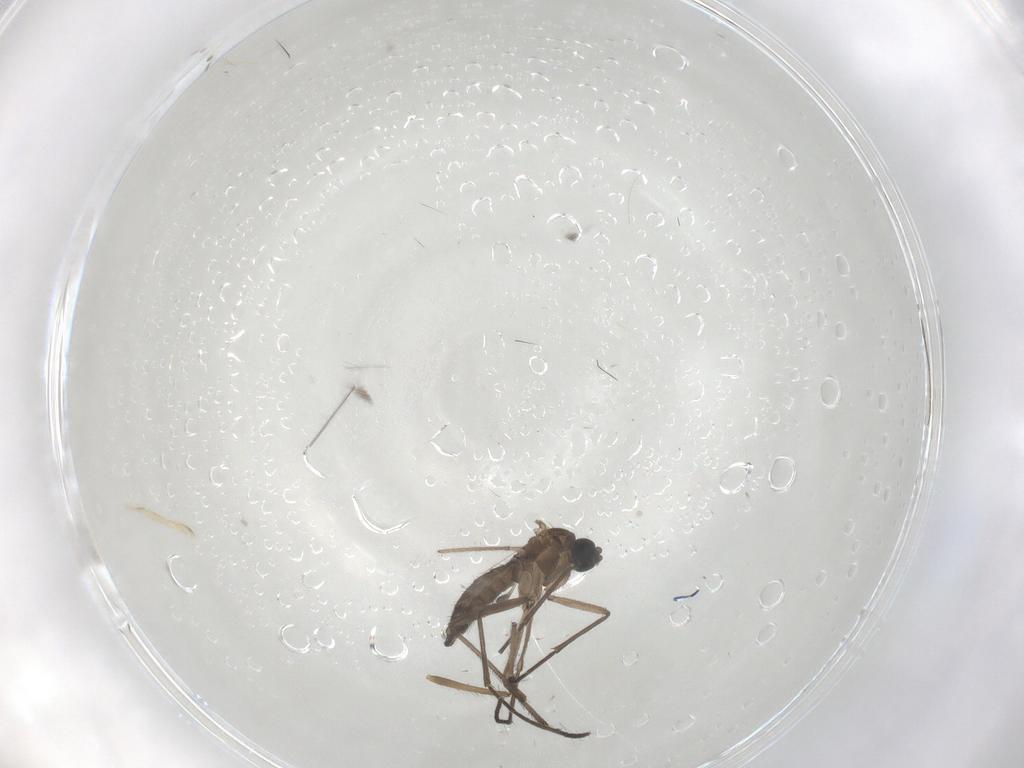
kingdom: Animalia
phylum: Arthropoda
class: Insecta
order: Diptera
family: Sciaridae
